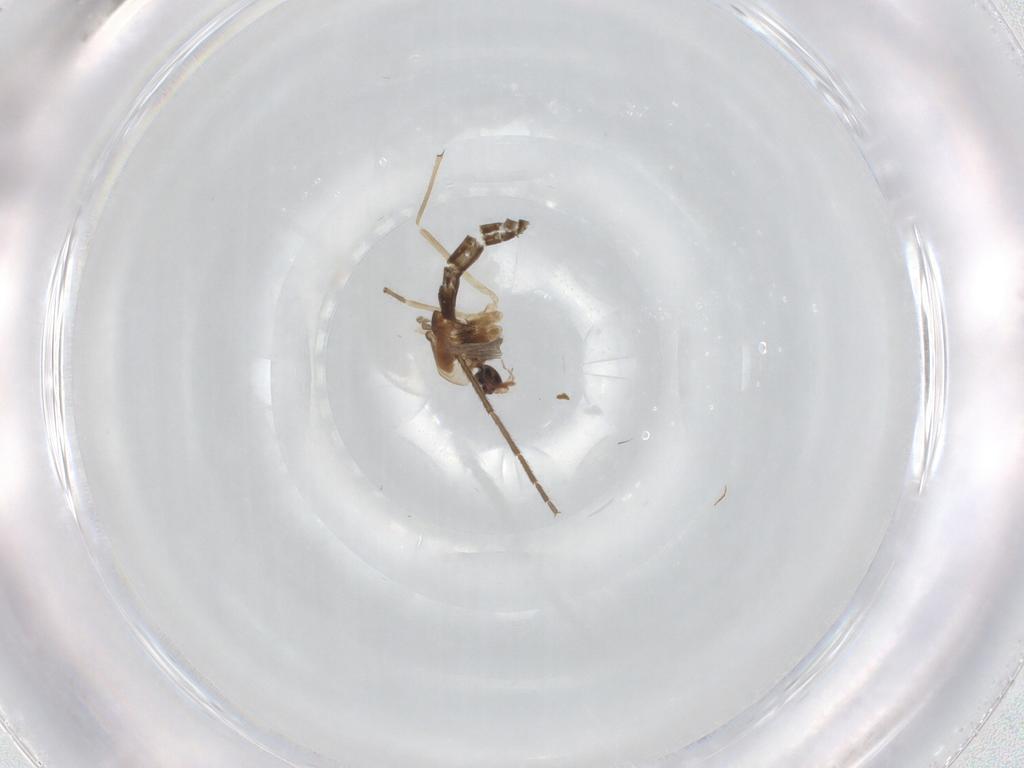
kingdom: Animalia
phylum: Arthropoda
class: Insecta
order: Diptera
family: Chironomidae
